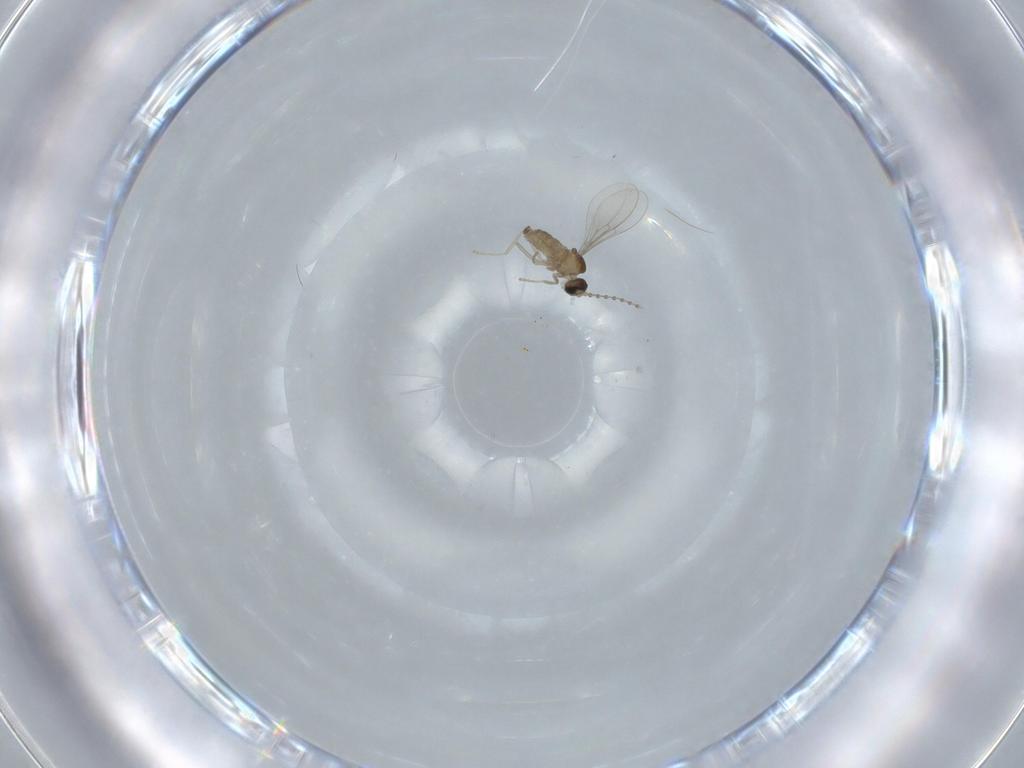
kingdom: Animalia
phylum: Arthropoda
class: Insecta
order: Diptera
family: Cecidomyiidae
